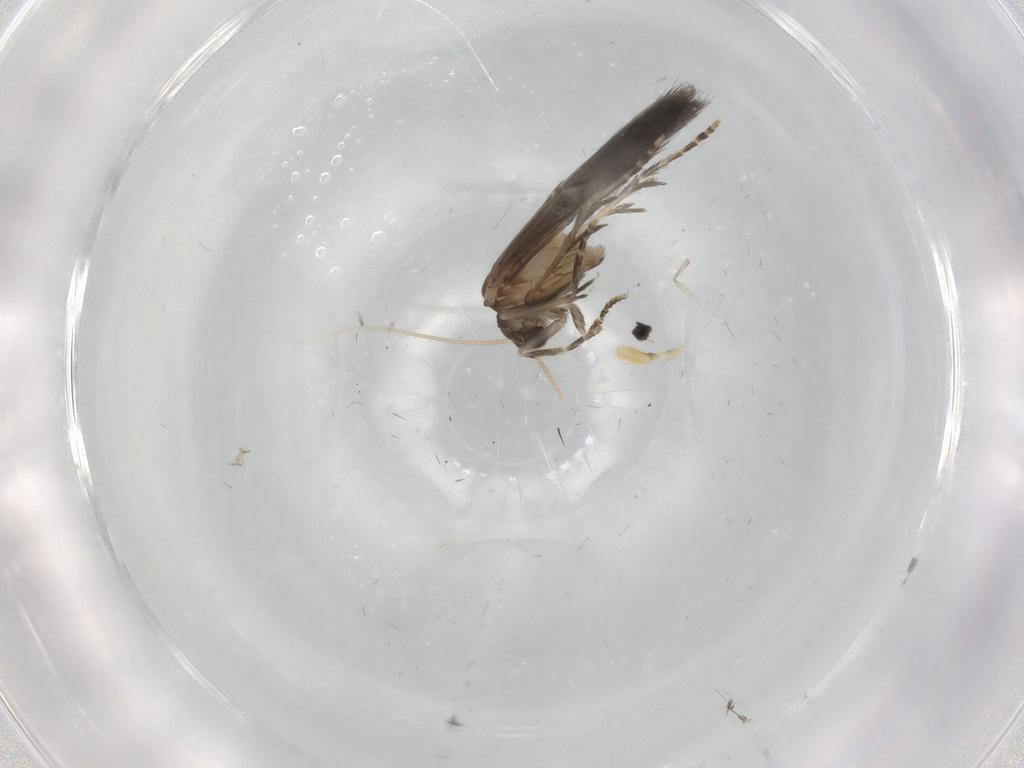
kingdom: Animalia
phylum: Arthropoda
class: Insecta
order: Trichoptera
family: Hydroptilidae
